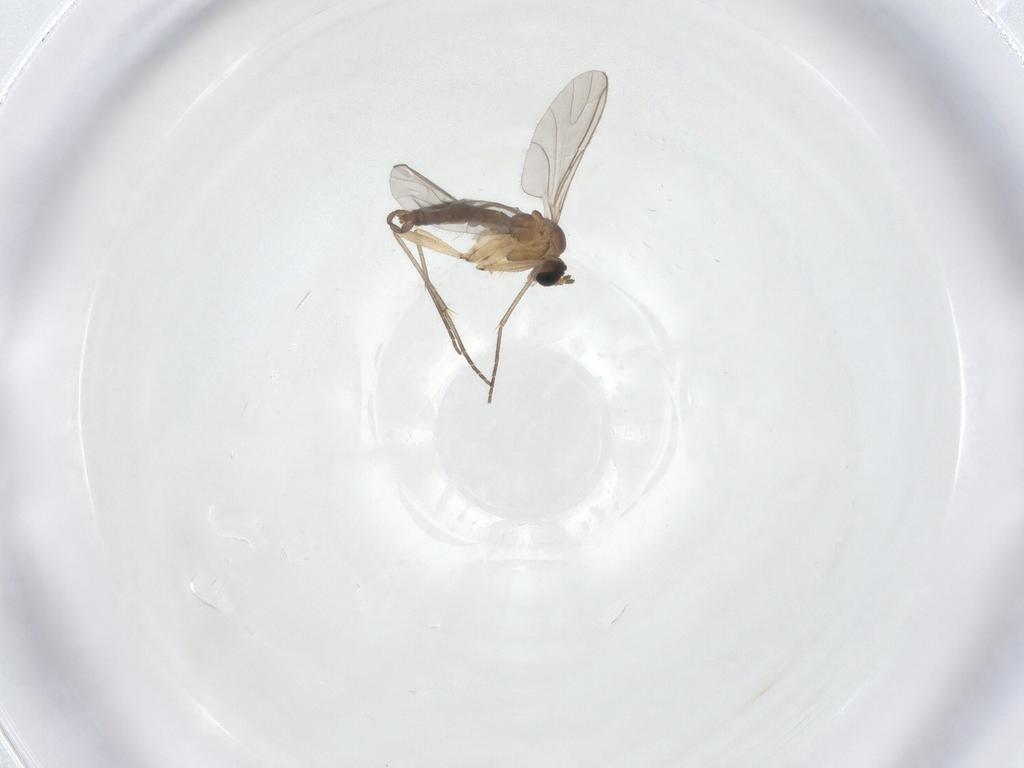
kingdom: Animalia
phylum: Arthropoda
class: Insecta
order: Diptera
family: Sciaridae
